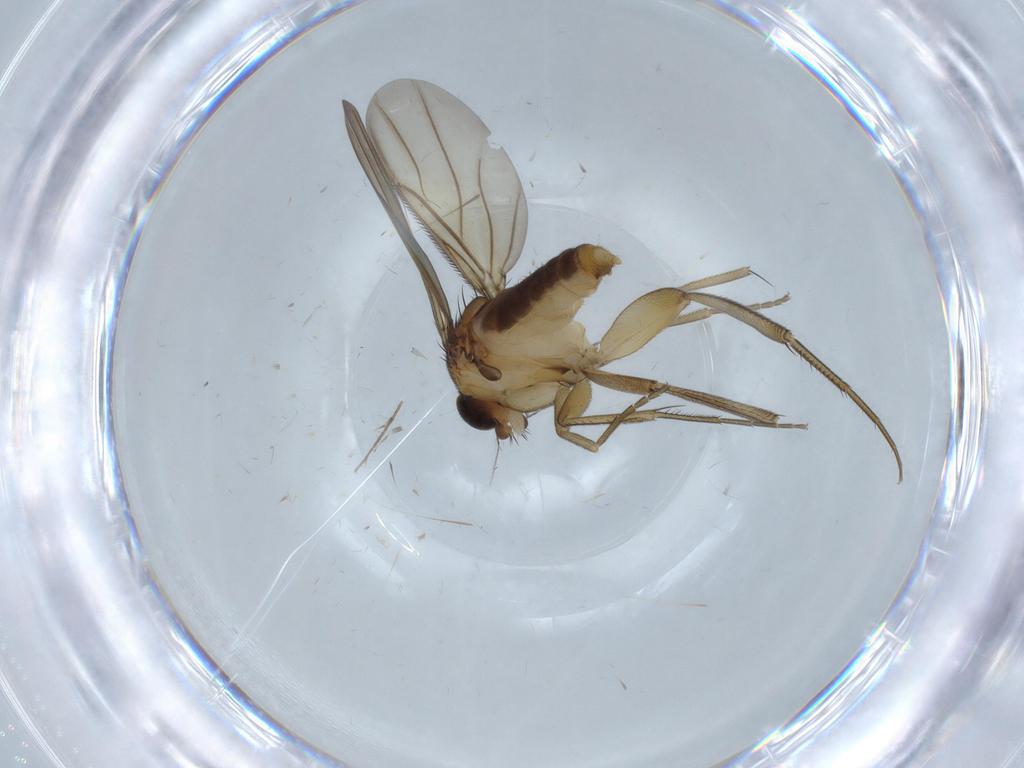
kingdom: Animalia
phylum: Arthropoda
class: Insecta
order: Diptera
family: Phoridae
